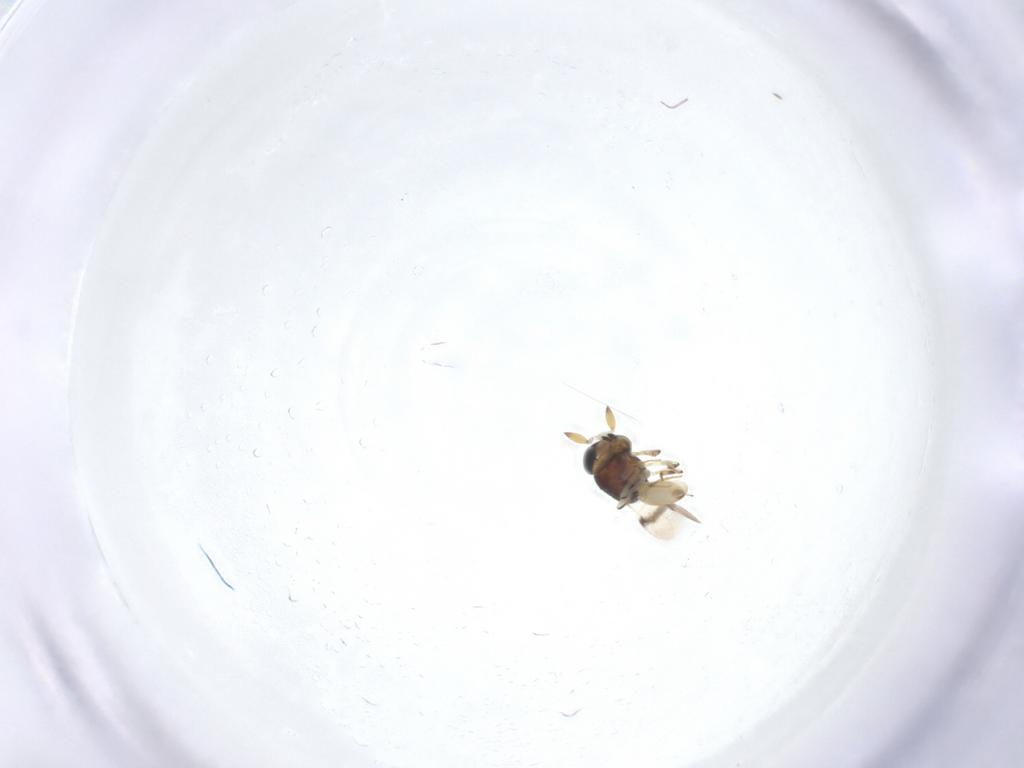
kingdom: Animalia
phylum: Arthropoda
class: Insecta
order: Hymenoptera
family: Scelionidae
